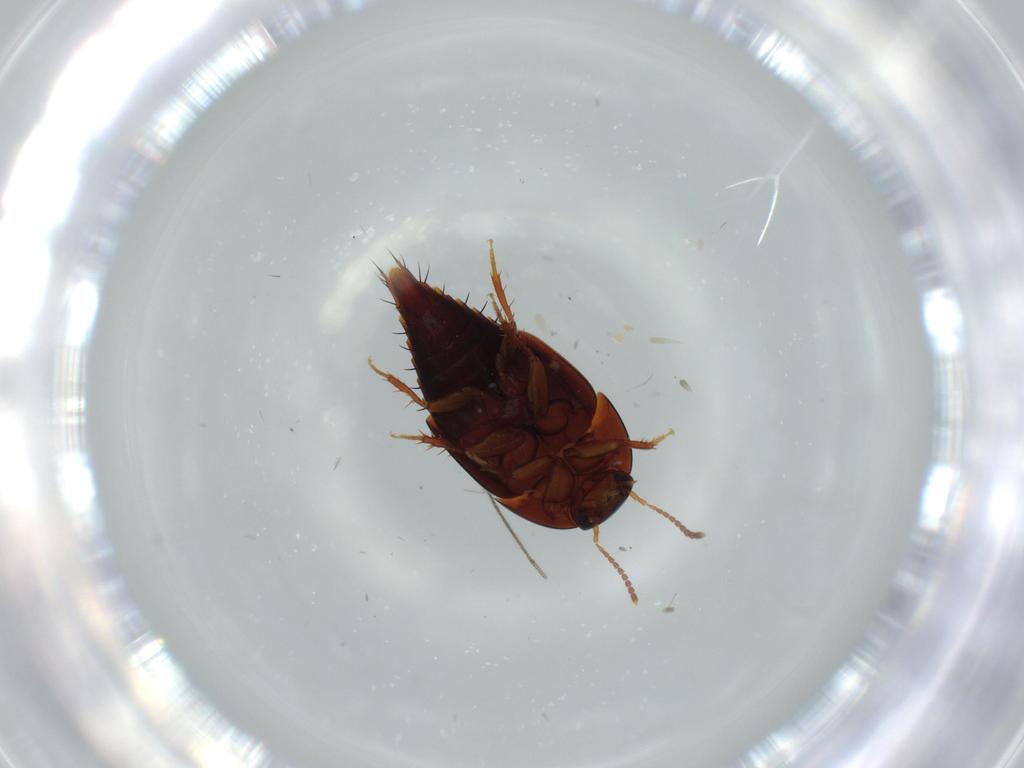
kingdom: Animalia
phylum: Arthropoda
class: Insecta
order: Coleoptera
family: Staphylinidae
